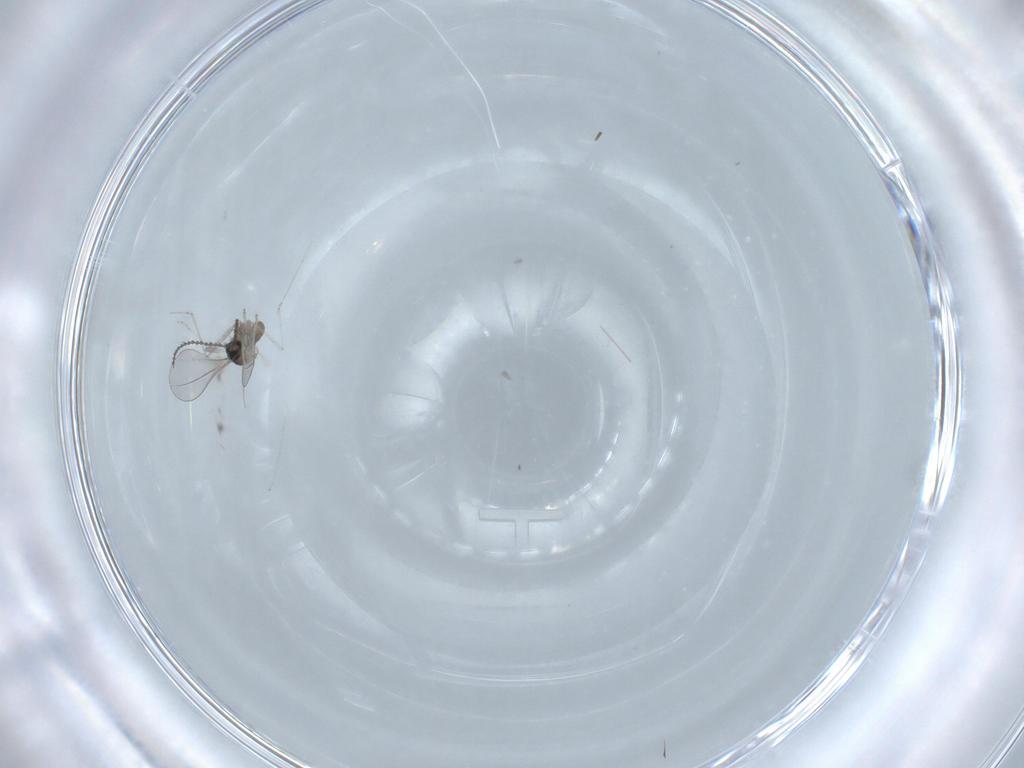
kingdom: Animalia
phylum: Arthropoda
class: Insecta
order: Diptera
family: Cecidomyiidae
